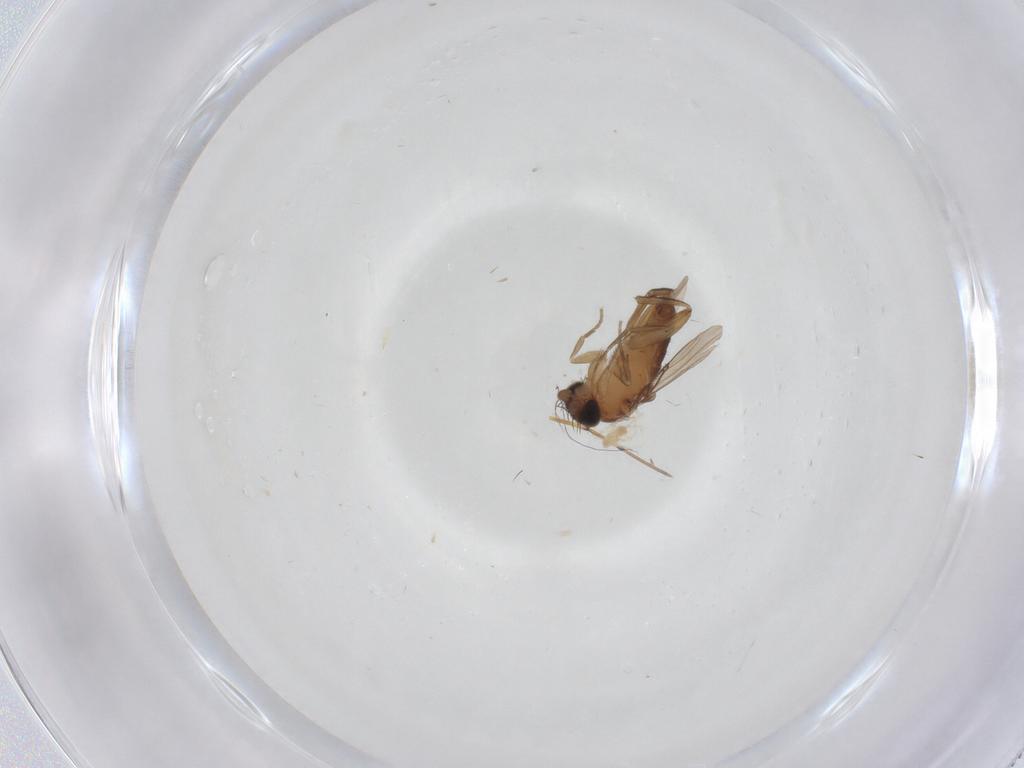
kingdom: Animalia
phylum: Arthropoda
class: Insecta
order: Diptera
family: Phoridae
